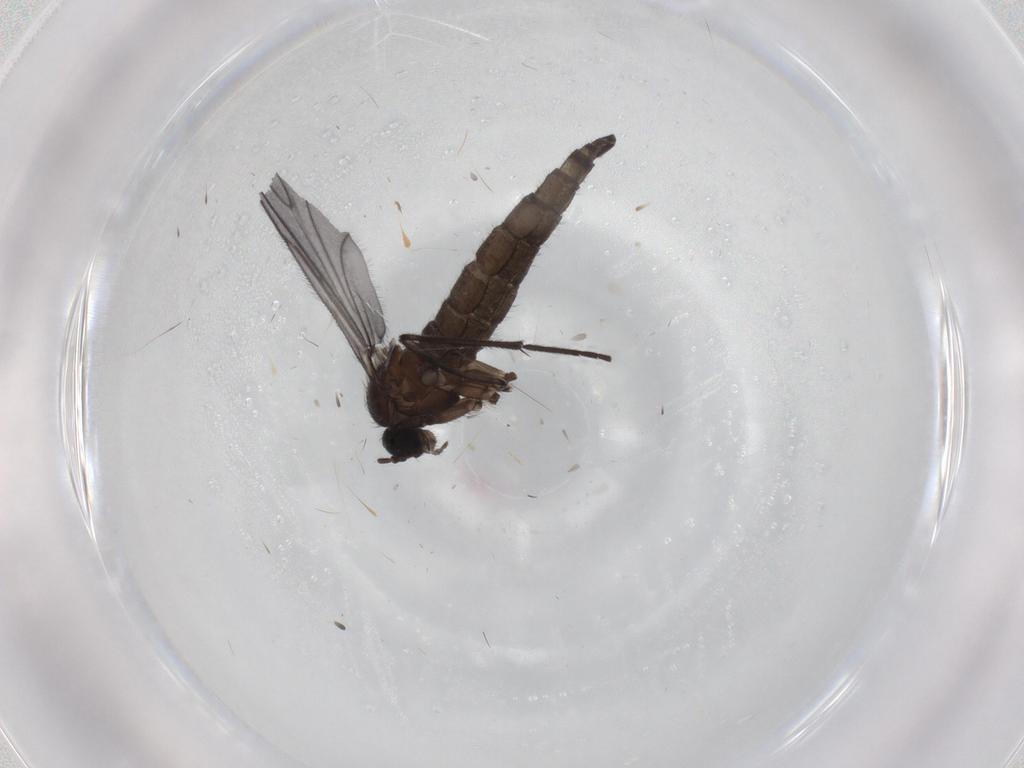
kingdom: Animalia
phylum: Arthropoda
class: Insecta
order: Diptera
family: Sciaridae
